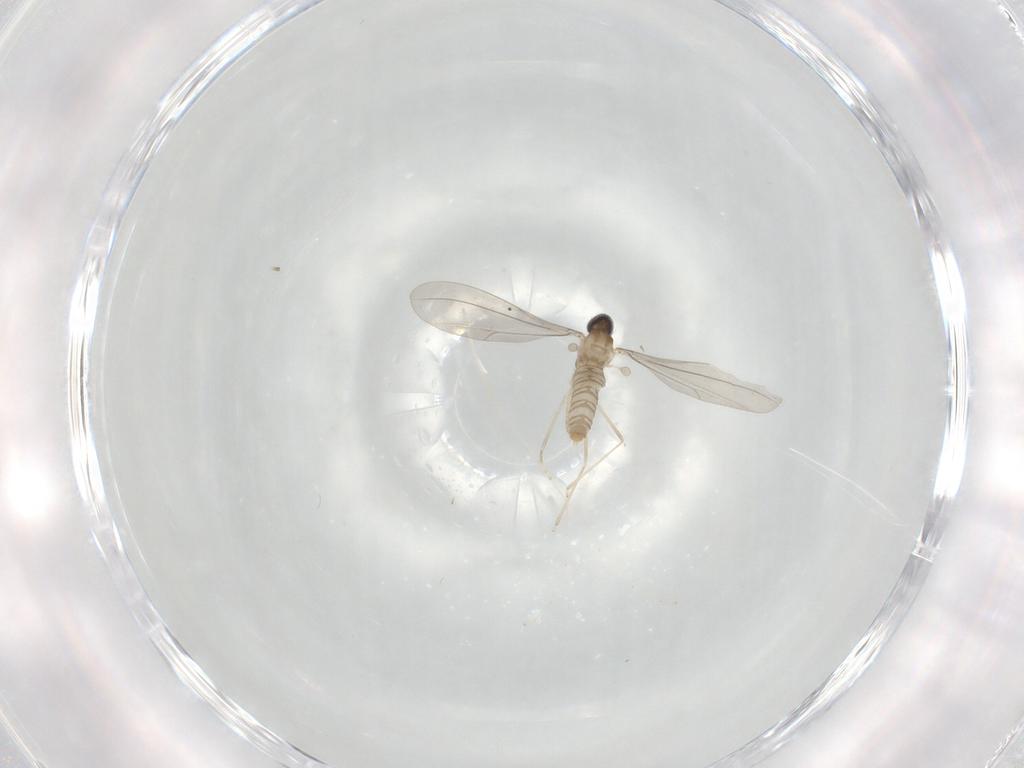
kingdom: Animalia
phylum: Arthropoda
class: Insecta
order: Diptera
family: Cecidomyiidae
